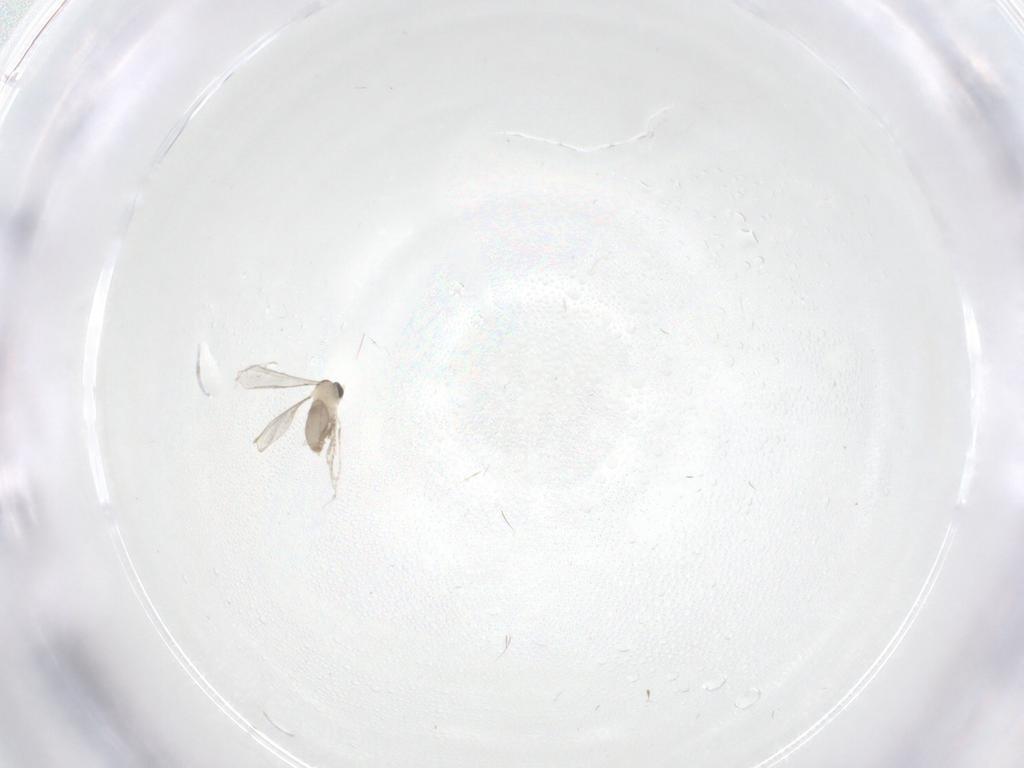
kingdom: Animalia
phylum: Arthropoda
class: Insecta
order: Diptera
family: Cecidomyiidae
